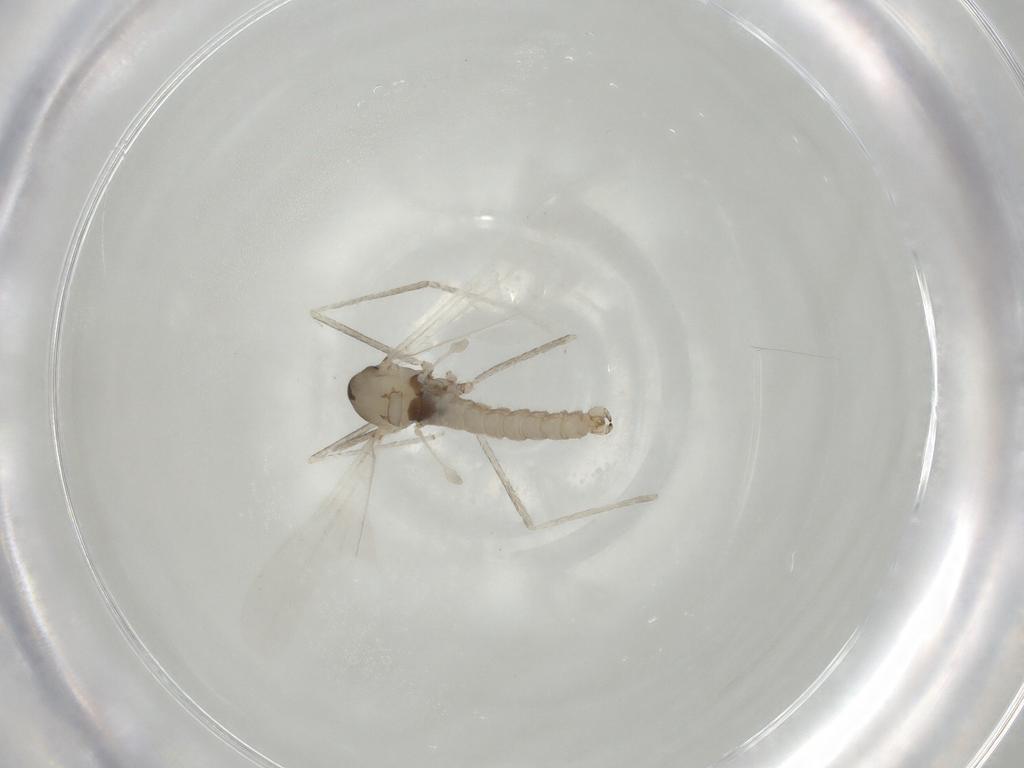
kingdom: Animalia
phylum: Arthropoda
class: Insecta
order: Diptera
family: Cecidomyiidae
